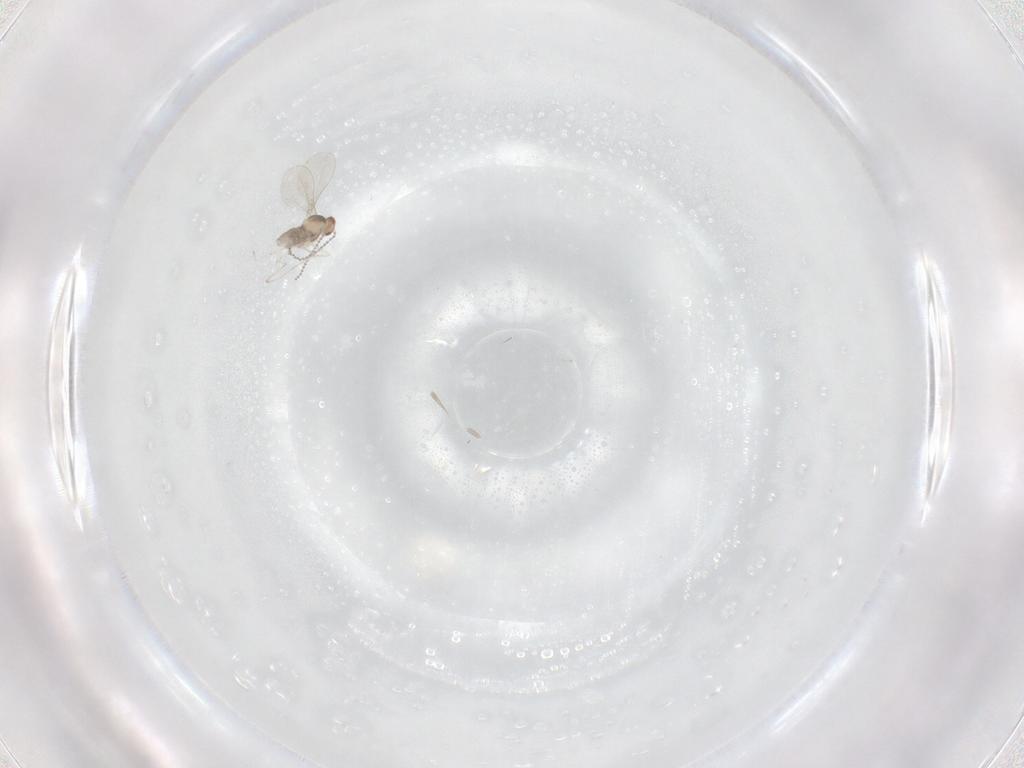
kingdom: Animalia
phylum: Arthropoda
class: Insecta
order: Diptera
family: Cecidomyiidae
